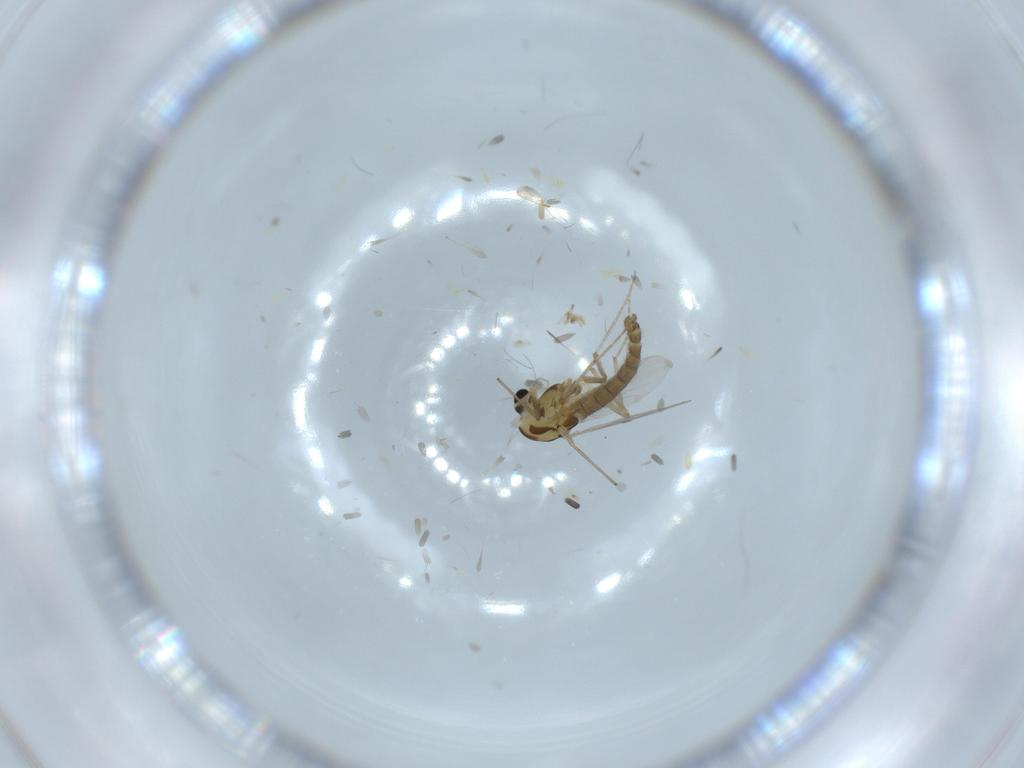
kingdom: Animalia
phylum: Arthropoda
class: Insecta
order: Diptera
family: Chironomidae
